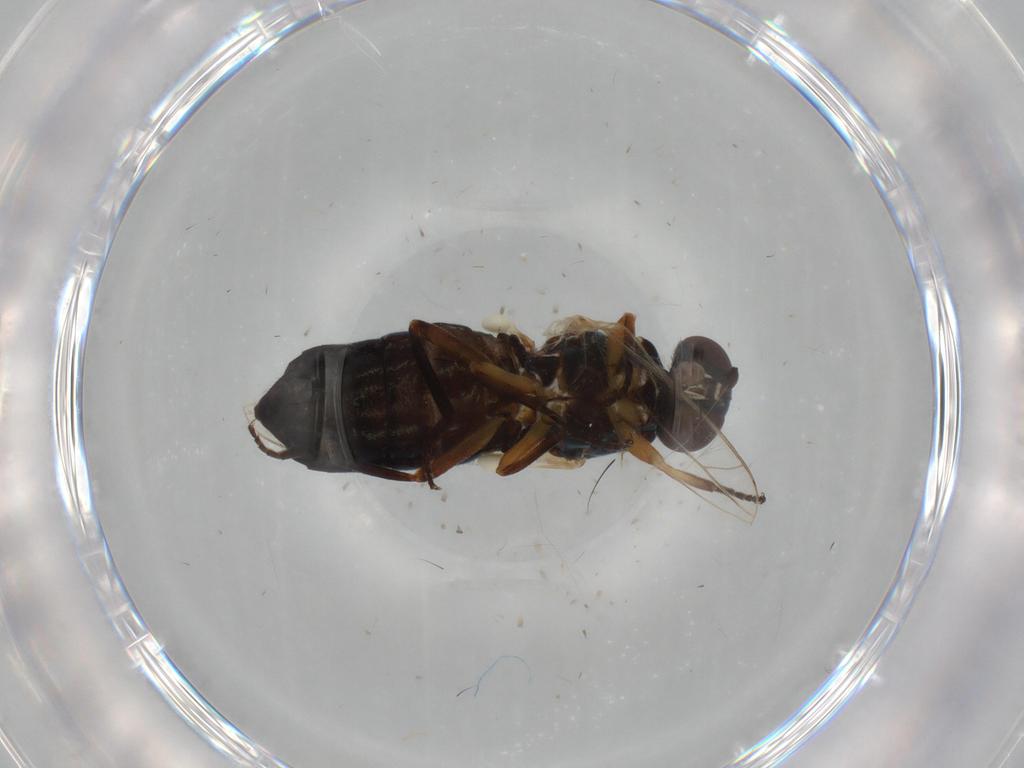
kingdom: Animalia
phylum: Arthropoda
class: Insecta
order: Diptera
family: Scenopinidae
